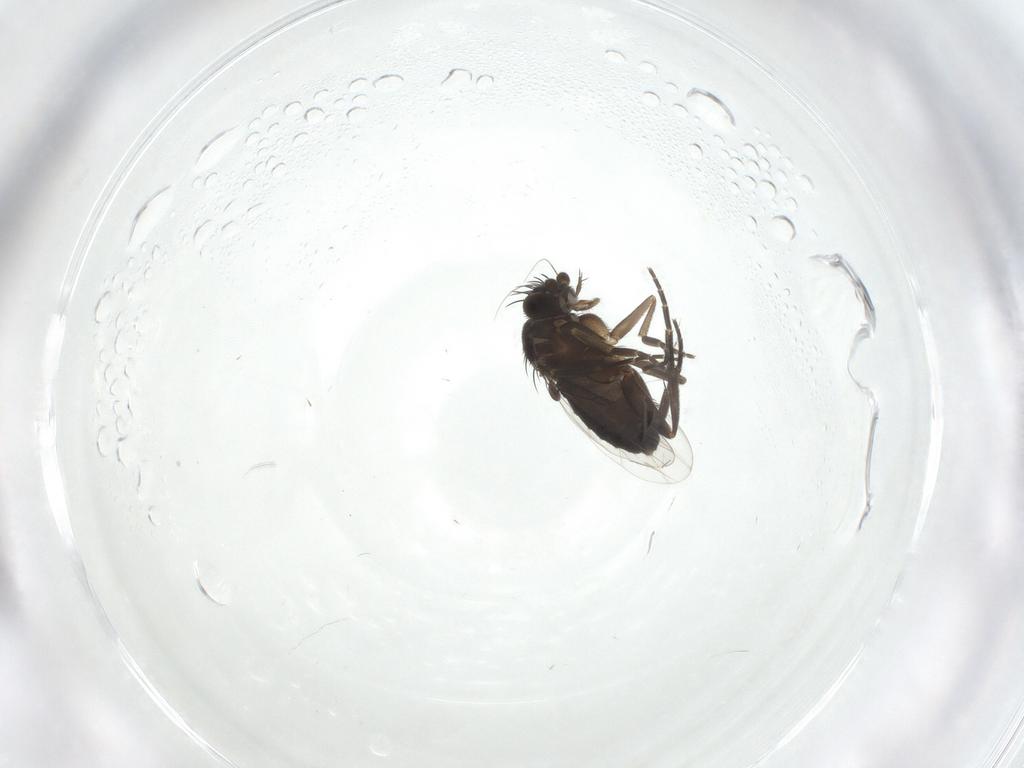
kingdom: Animalia
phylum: Arthropoda
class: Insecta
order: Diptera
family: Phoridae
